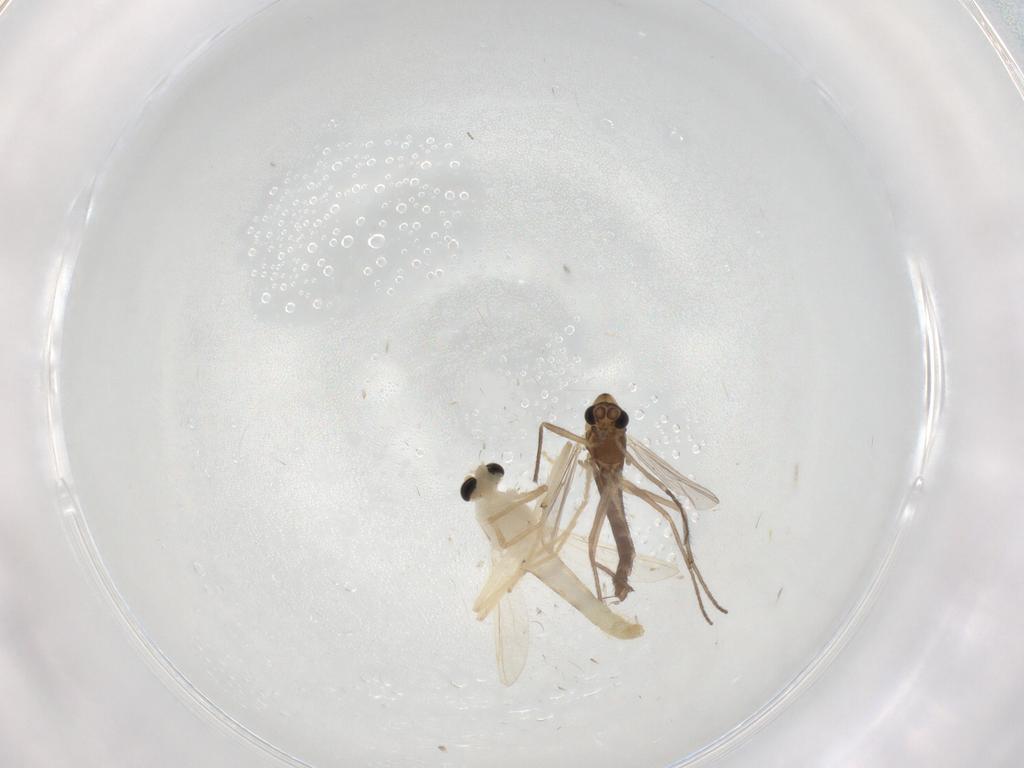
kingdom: Animalia
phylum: Arthropoda
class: Insecta
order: Diptera
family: Chironomidae
